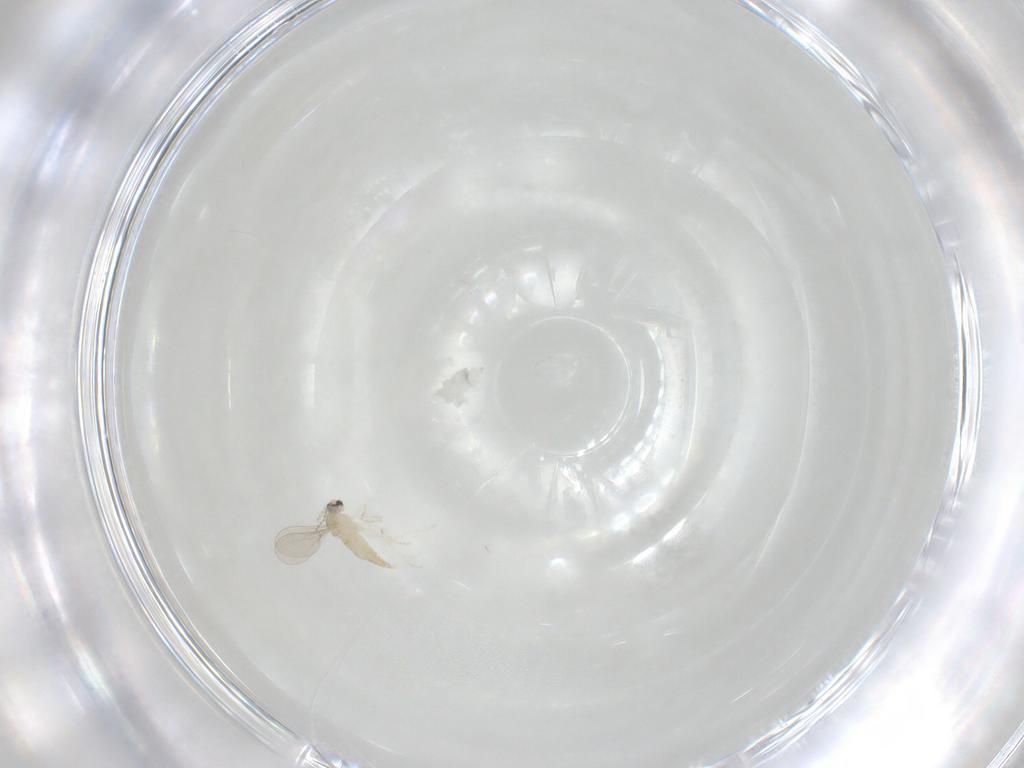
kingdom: Animalia
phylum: Arthropoda
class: Insecta
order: Diptera
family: Cecidomyiidae
